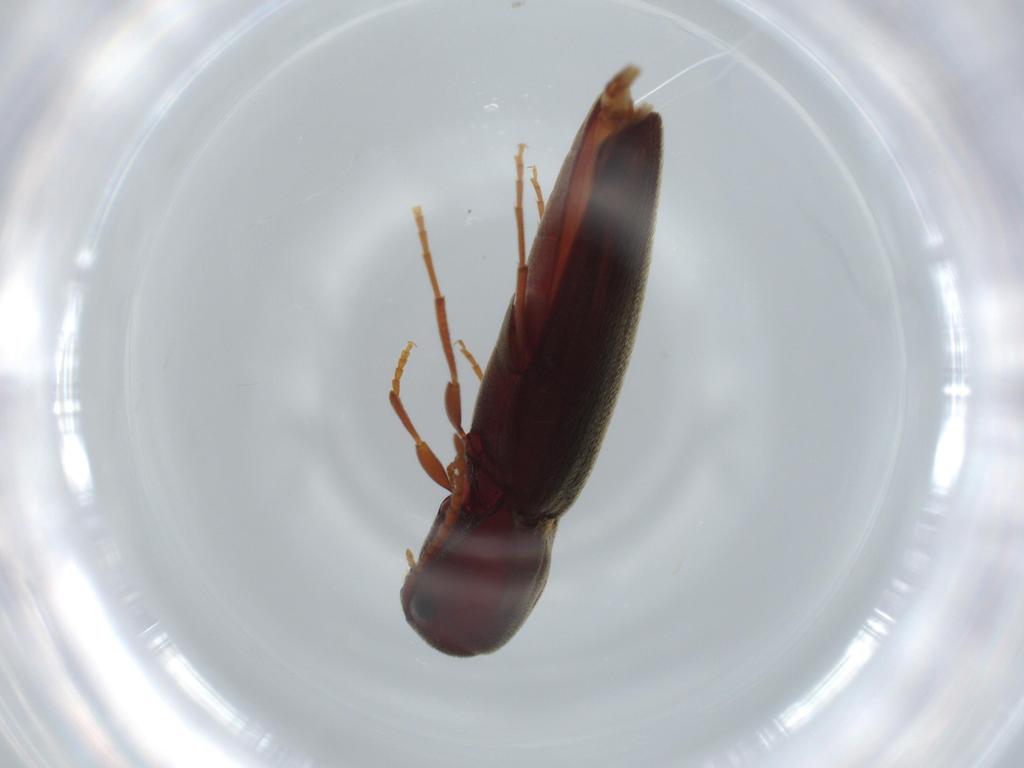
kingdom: Animalia
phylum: Arthropoda
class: Insecta
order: Coleoptera
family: Eucnemidae
